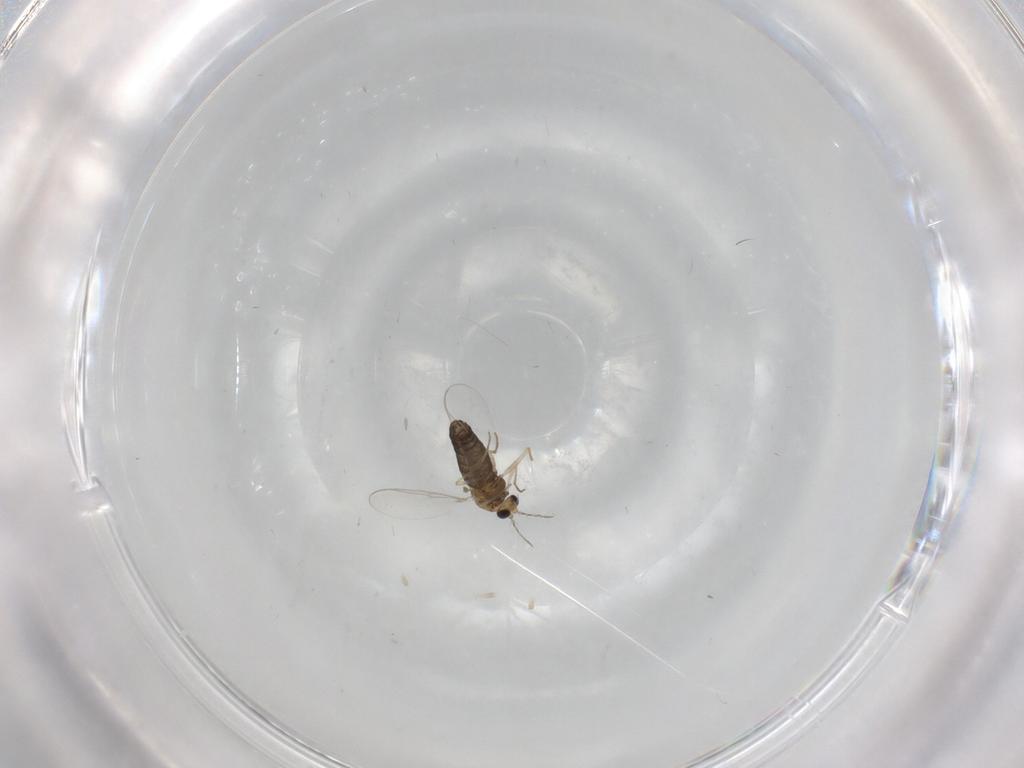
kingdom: Animalia
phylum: Arthropoda
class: Insecta
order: Diptera
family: Chironomidae
